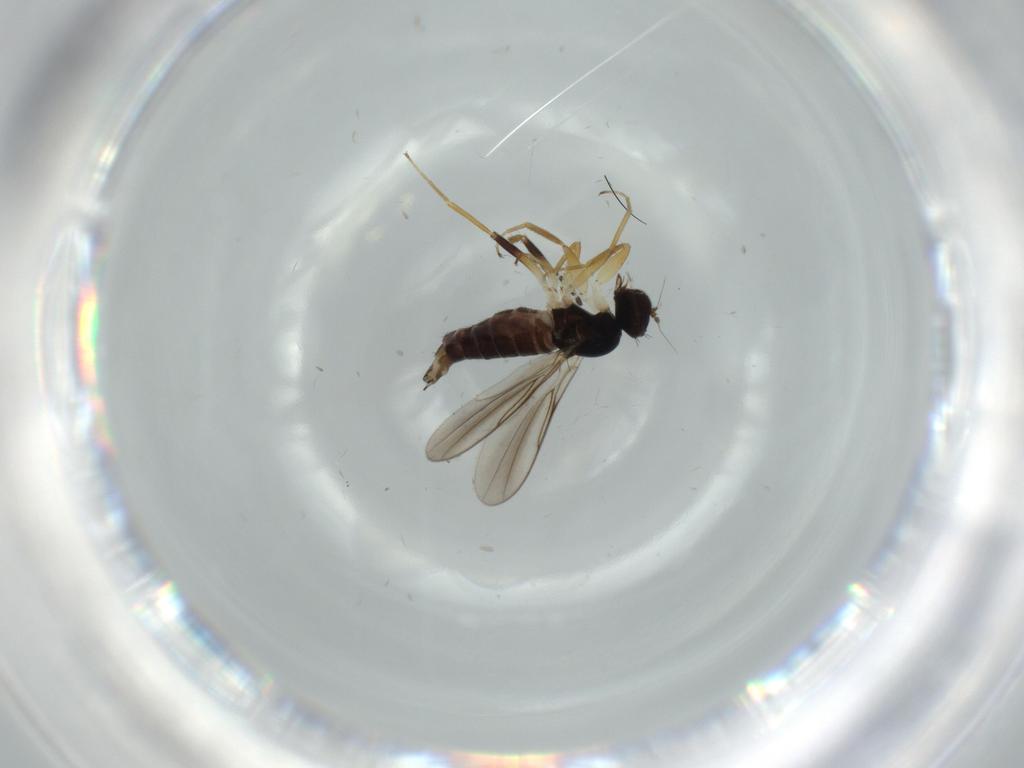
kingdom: Animalia
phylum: Arthropoda
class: Insecta
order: Diptera
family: Hybotidae
